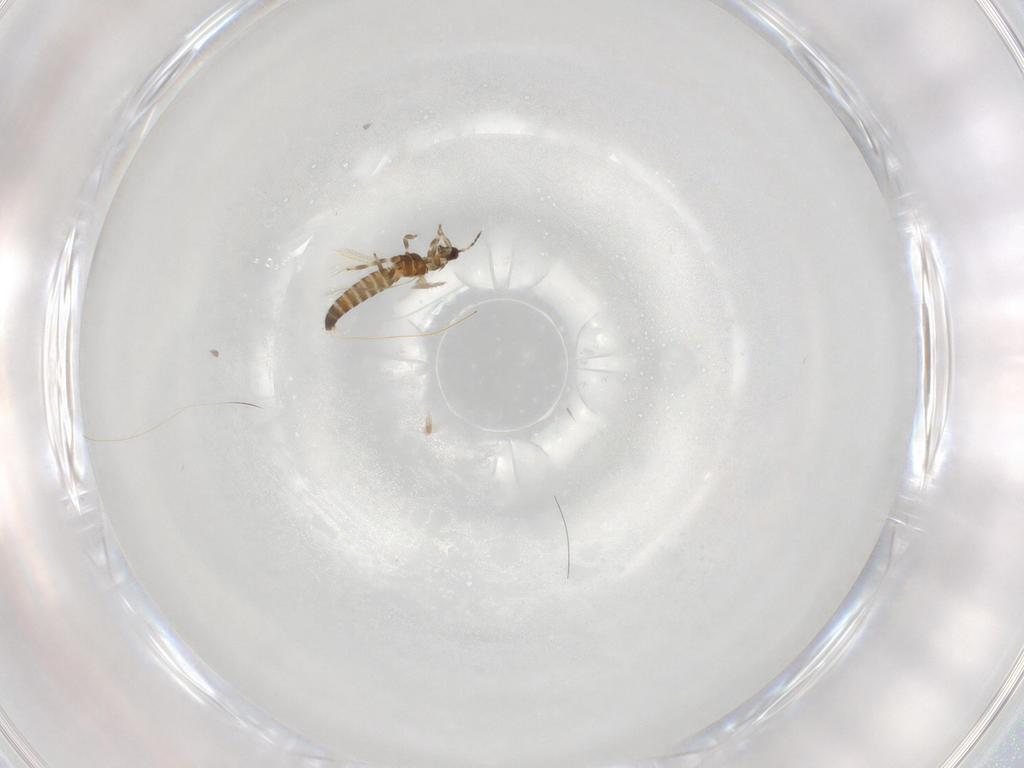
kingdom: Animalia
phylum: Arthropoda
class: Insecta
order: Thysanoptera
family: Thripidae
